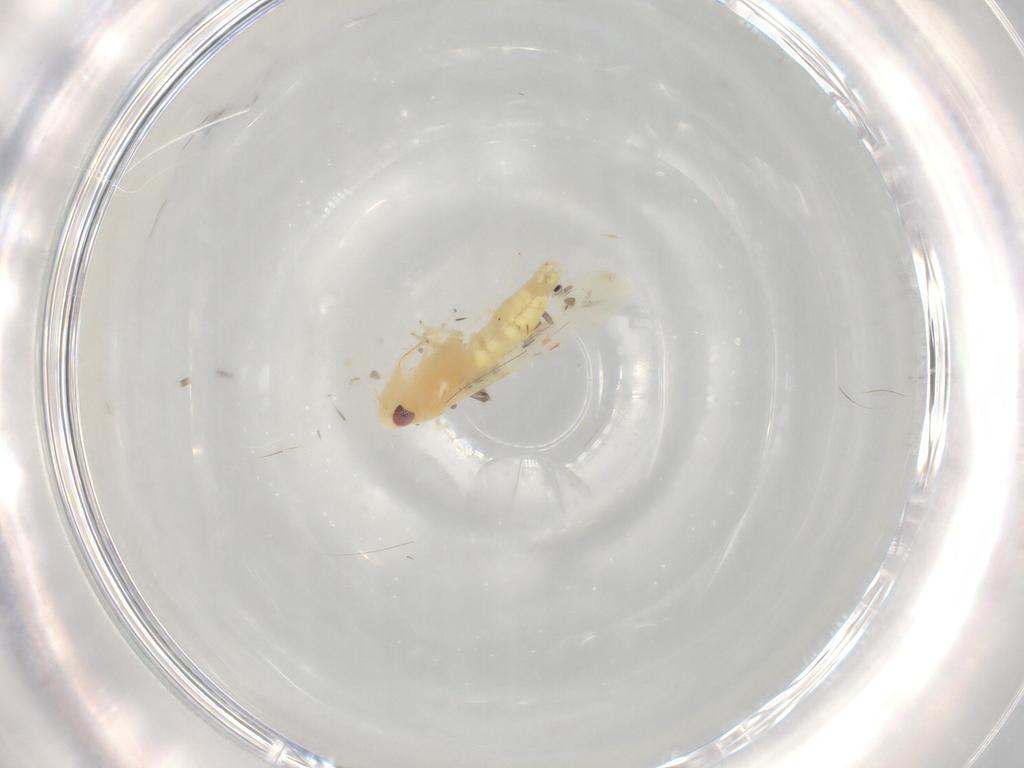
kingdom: Animalia
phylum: Arthropoda
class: Insecta
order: Hemiptera
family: Cicadellidae
